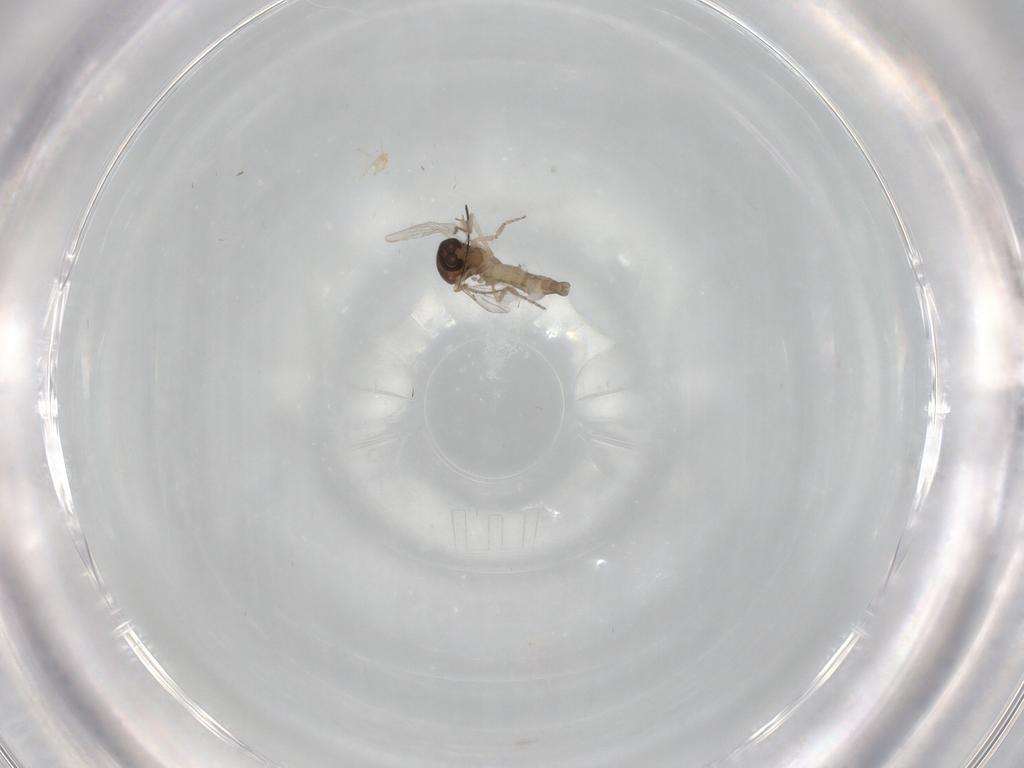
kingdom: Animalia
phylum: Arthropoda
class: Insecta
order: Diptera
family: Ceratopogonidae
